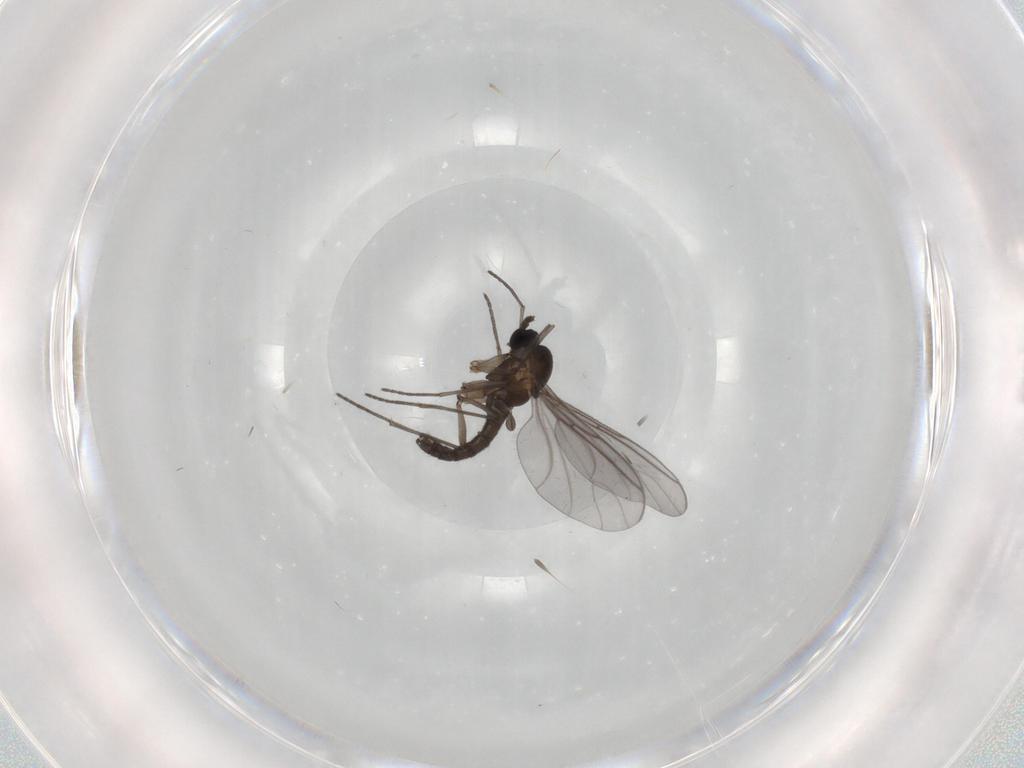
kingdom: Animalia
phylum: Arthropoda
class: Insecta
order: Diptera
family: Sciaridae
